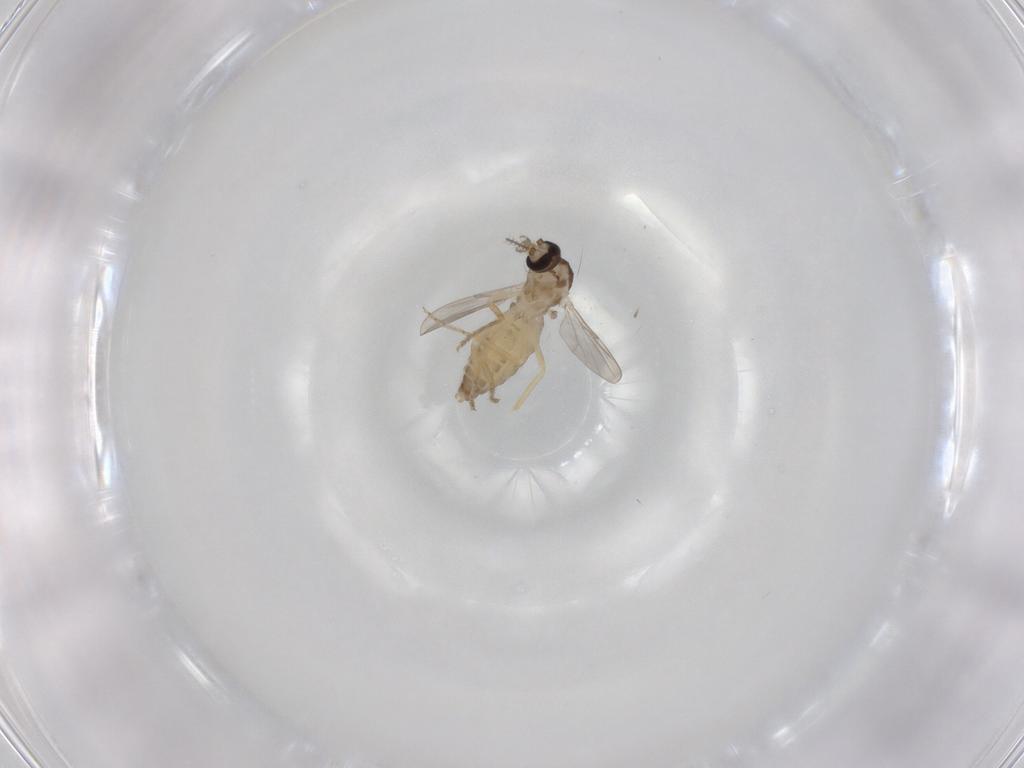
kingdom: Animalia
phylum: Arthropoda
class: Insecta
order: Diptera
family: Ceratopogonidae
